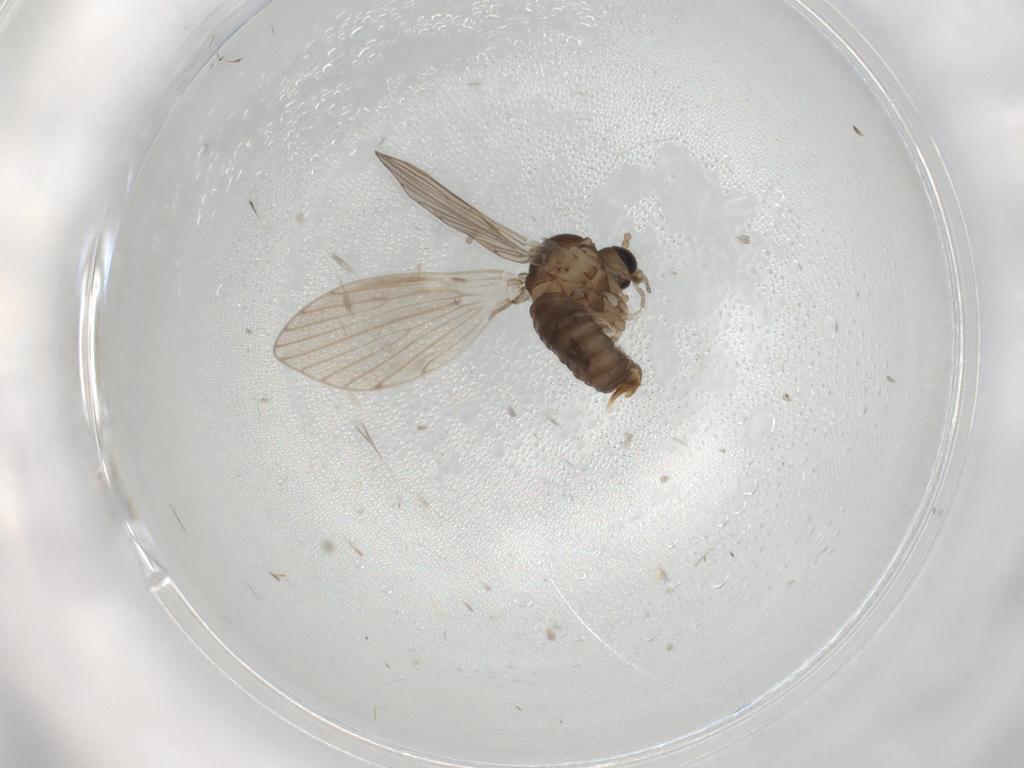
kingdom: Animalia
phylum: Arthropoda
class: Insecta
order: Diptera
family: Psychodidae
